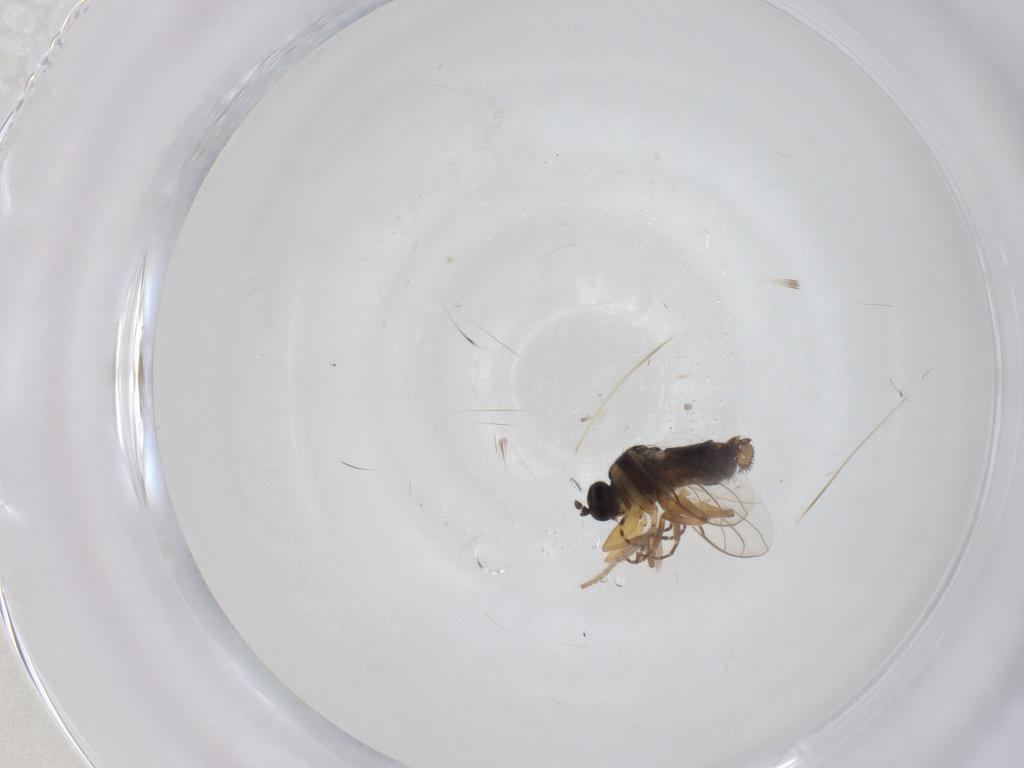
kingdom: Animalia
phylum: Arthropoda
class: Insecta
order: Diptera
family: Hybotidae
